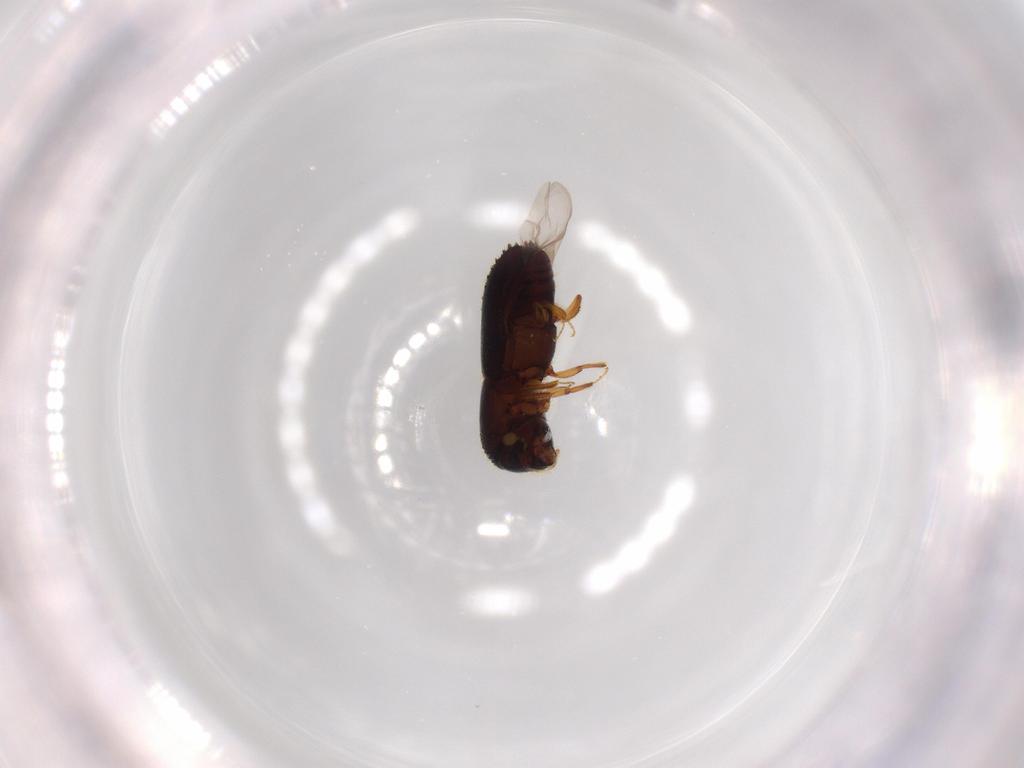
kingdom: Animalia
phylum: Arthropoda
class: Insecta
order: Coleoptera
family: Curculionidae
